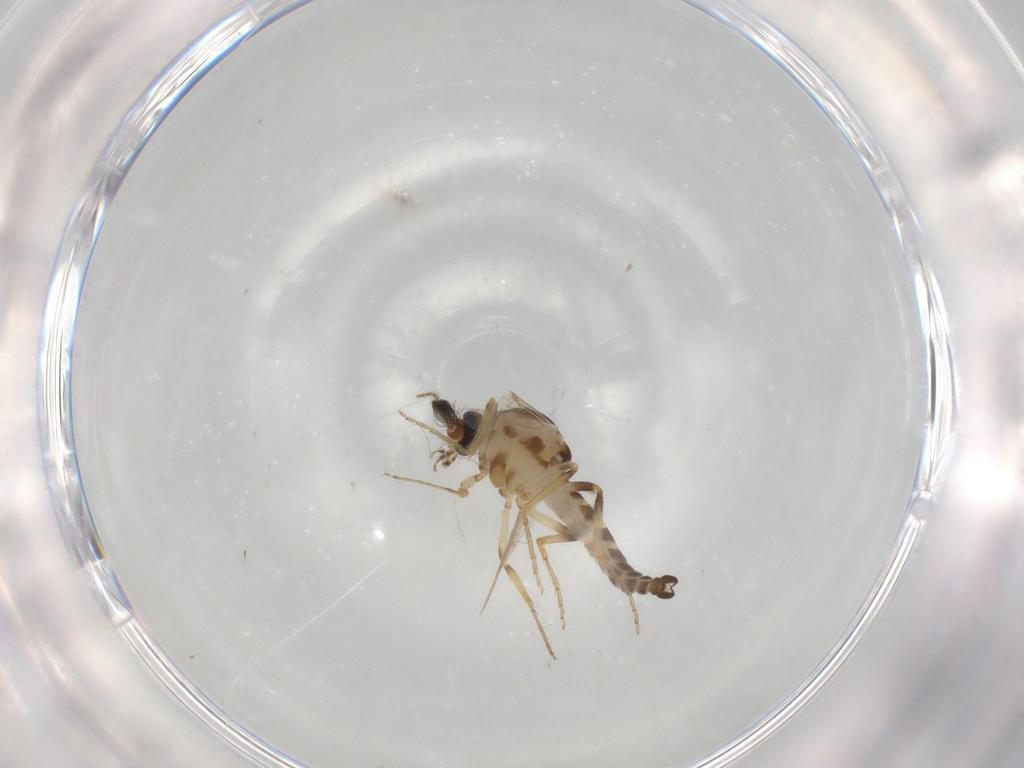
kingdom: Animalia
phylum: Arthropoda
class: Insecta
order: Diptera
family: Ceratopogonidae
